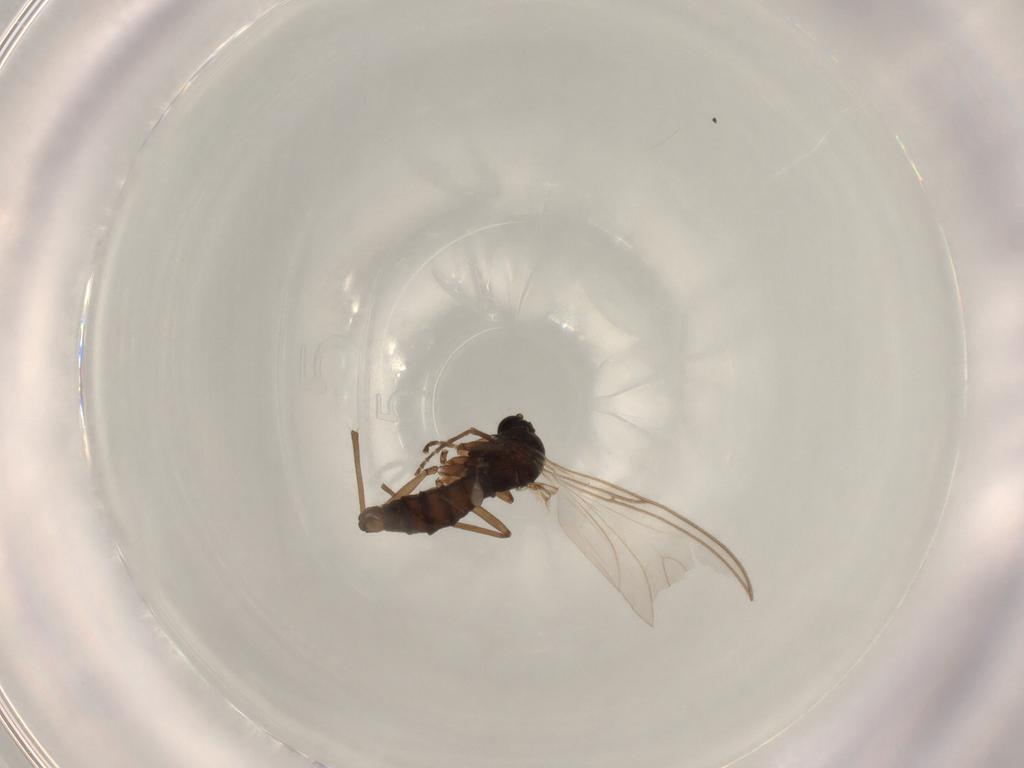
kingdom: Animalia
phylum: Arthropoda
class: Insecta
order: Diptera
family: Polleniidae
